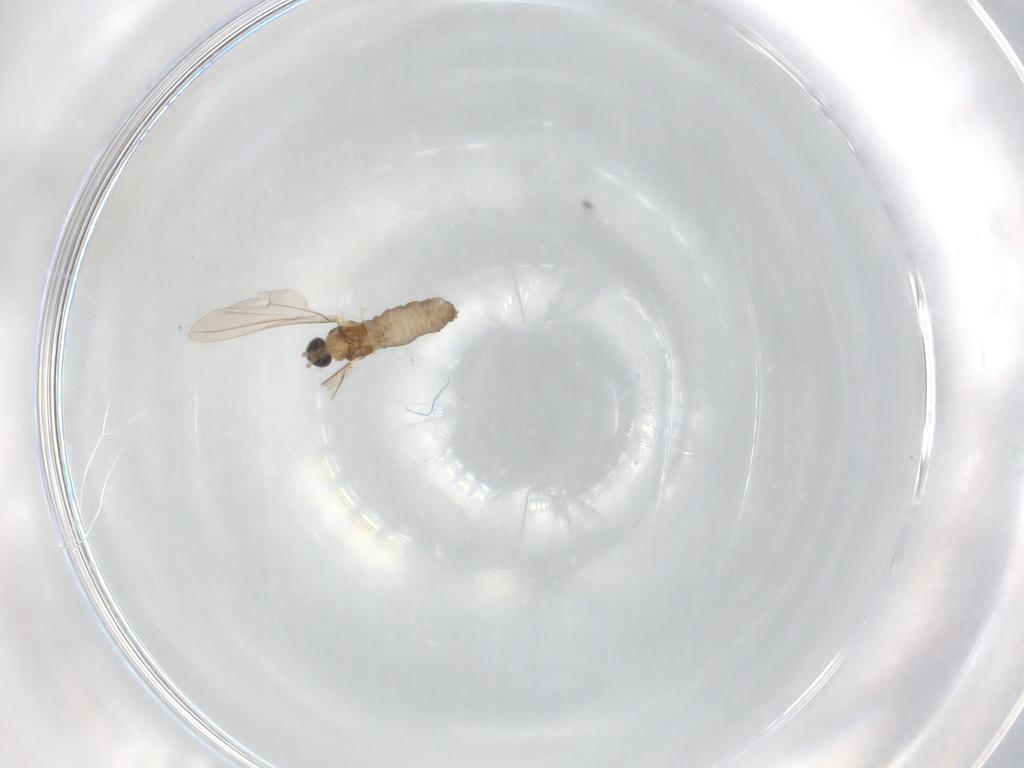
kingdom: Animalia
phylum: Arthropoda
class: Insecta
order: Diptera
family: Cecidomyiidae
